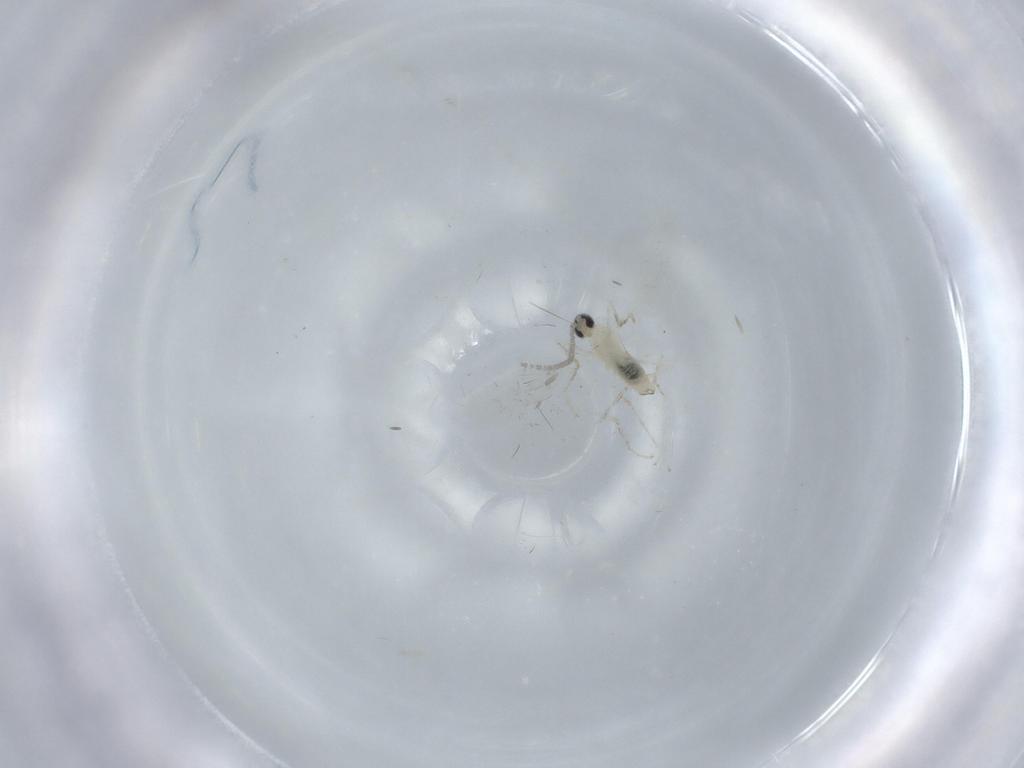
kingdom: Animalia
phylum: Arthropoda
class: Insecta
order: Diptera
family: Cecidomyiidae
